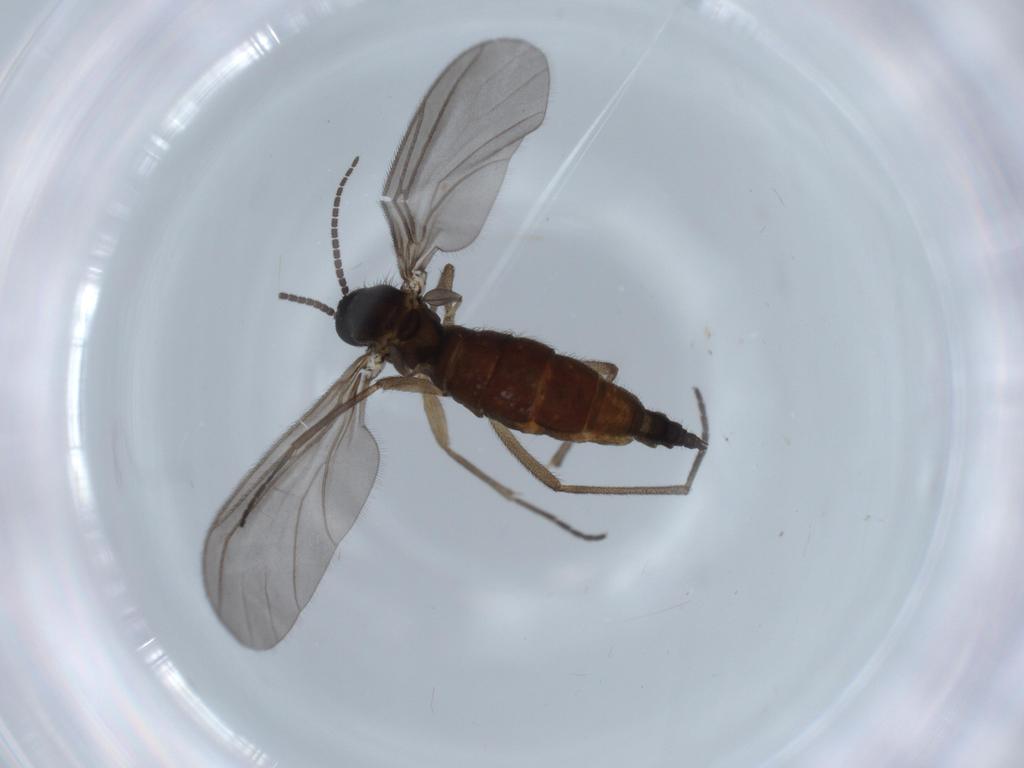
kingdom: Animalia
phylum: Arthropoda
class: Insecta
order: Diptera
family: Sciaridae
